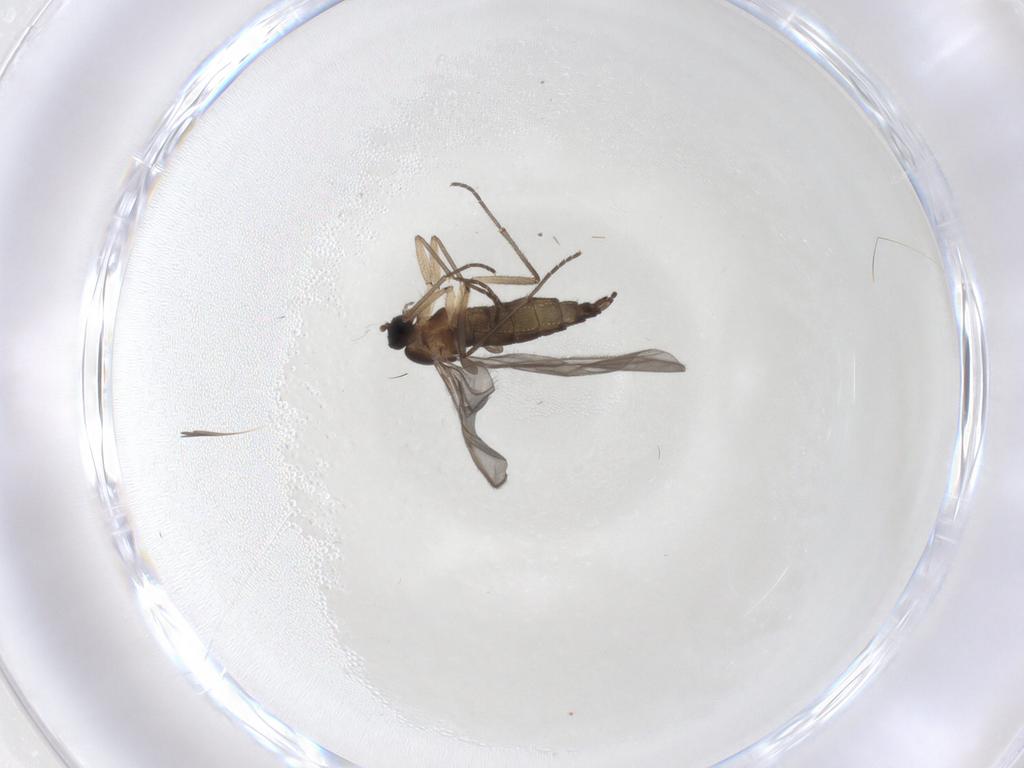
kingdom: Animalia
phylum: Arthropoda
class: Insecta
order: Diptera
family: Sciaridae
